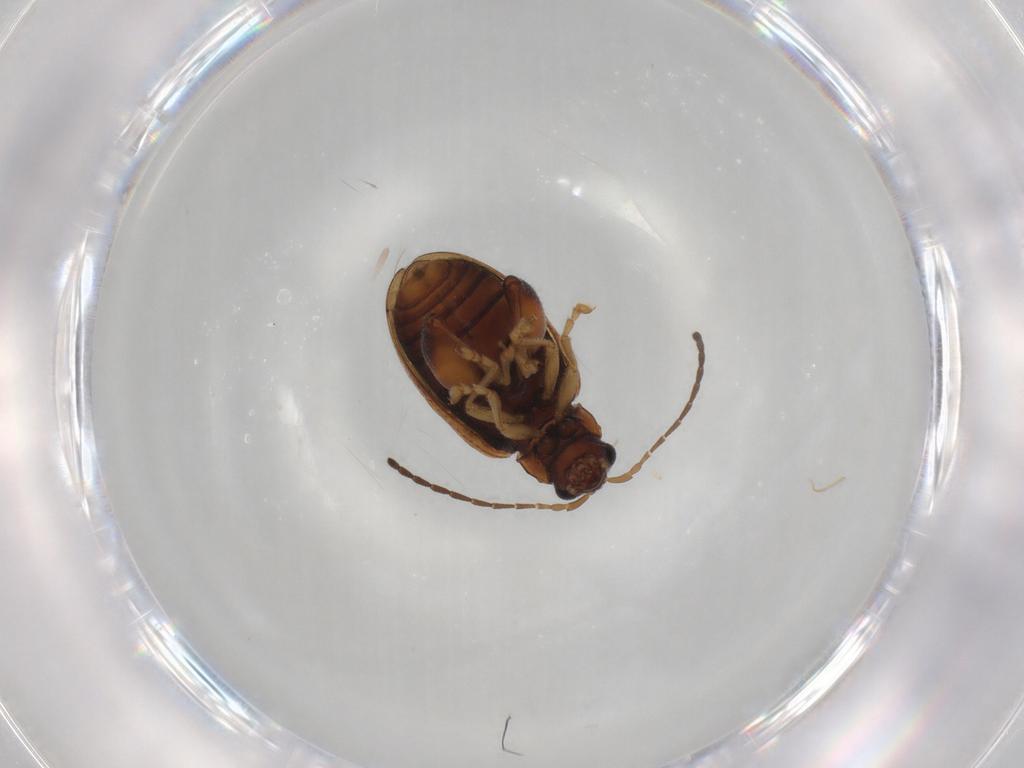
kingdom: Animalia
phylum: Arthropoda
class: Insecta
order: Coleoptera
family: Chrysomelidae
